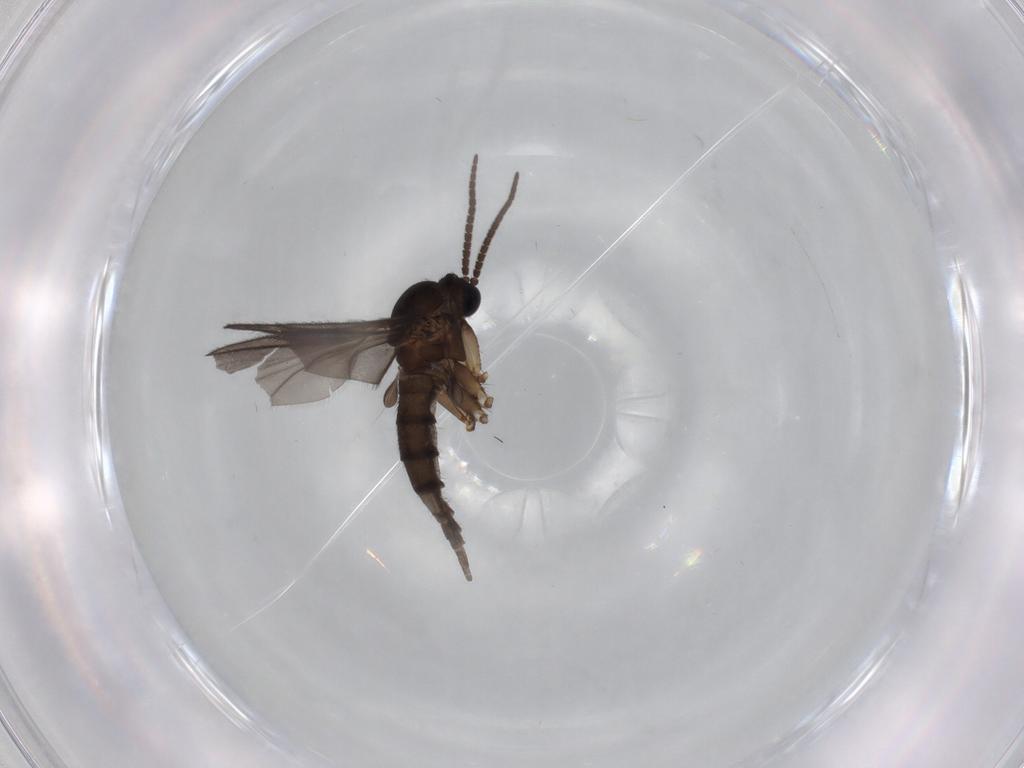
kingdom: Animalia
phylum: Arthropoda
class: Insecta
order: Diptera
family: Sciaridae
